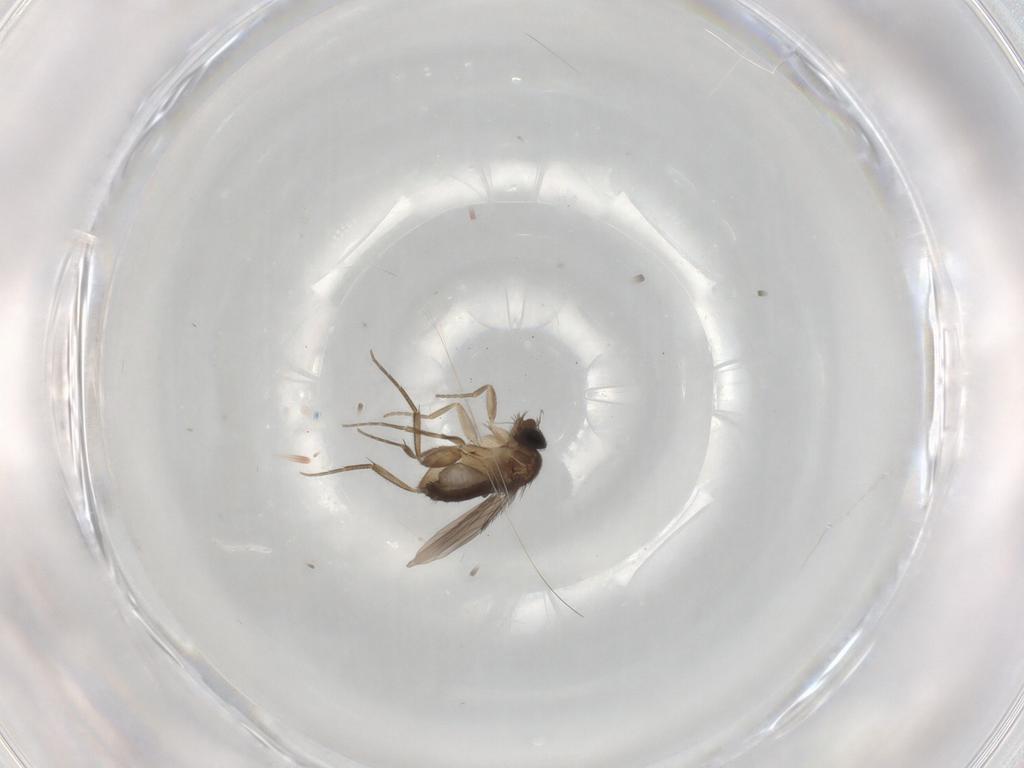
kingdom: Animalia
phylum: Arthropoda
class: Insecta
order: Diptera
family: Phoridae
